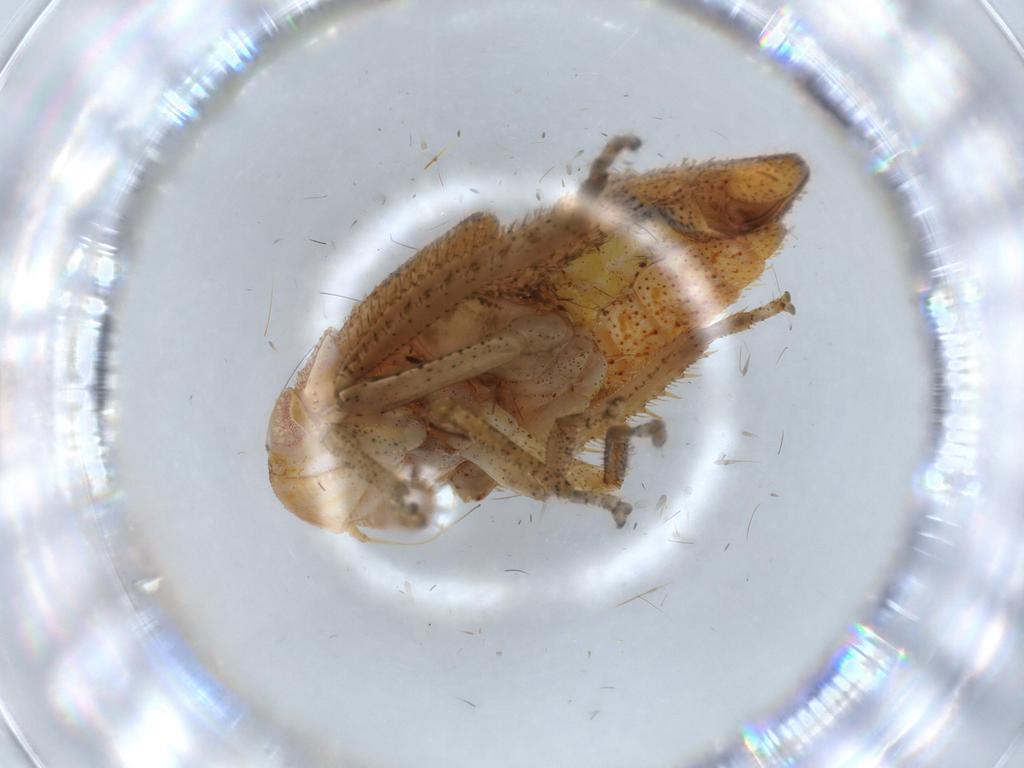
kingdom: Animalia
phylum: Arthropoda
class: Insecta
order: Hemiptera
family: Cicadellidae
